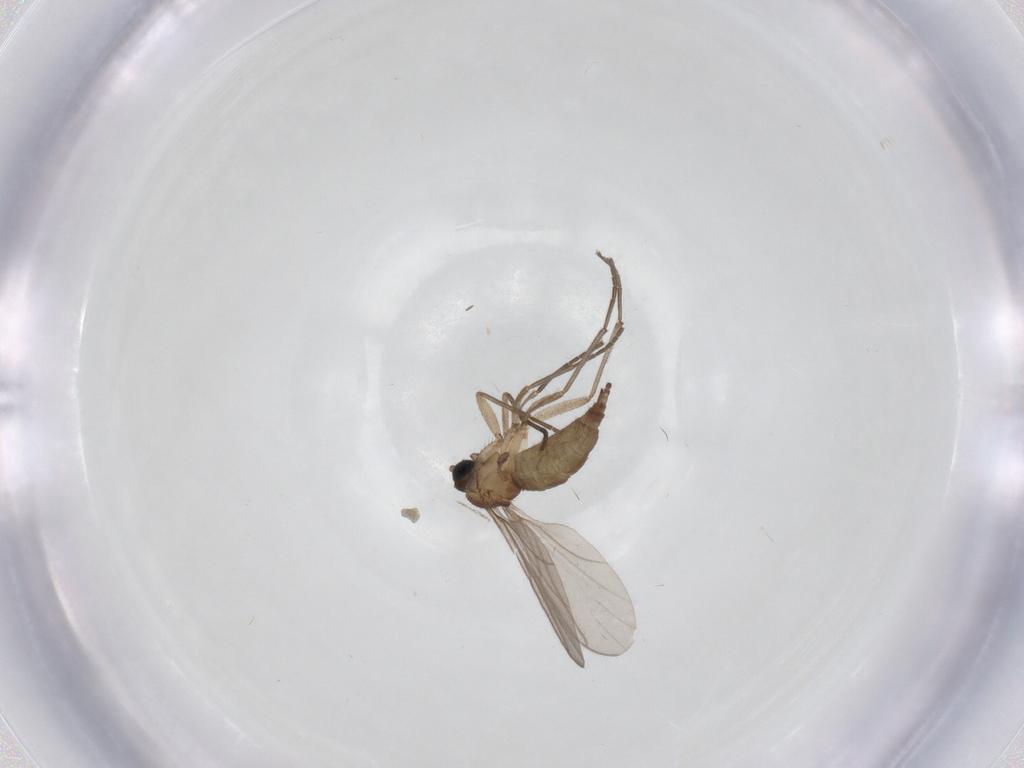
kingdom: Animalia
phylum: Arthropoda
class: Insecta
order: Diptera
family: Sciaridae
